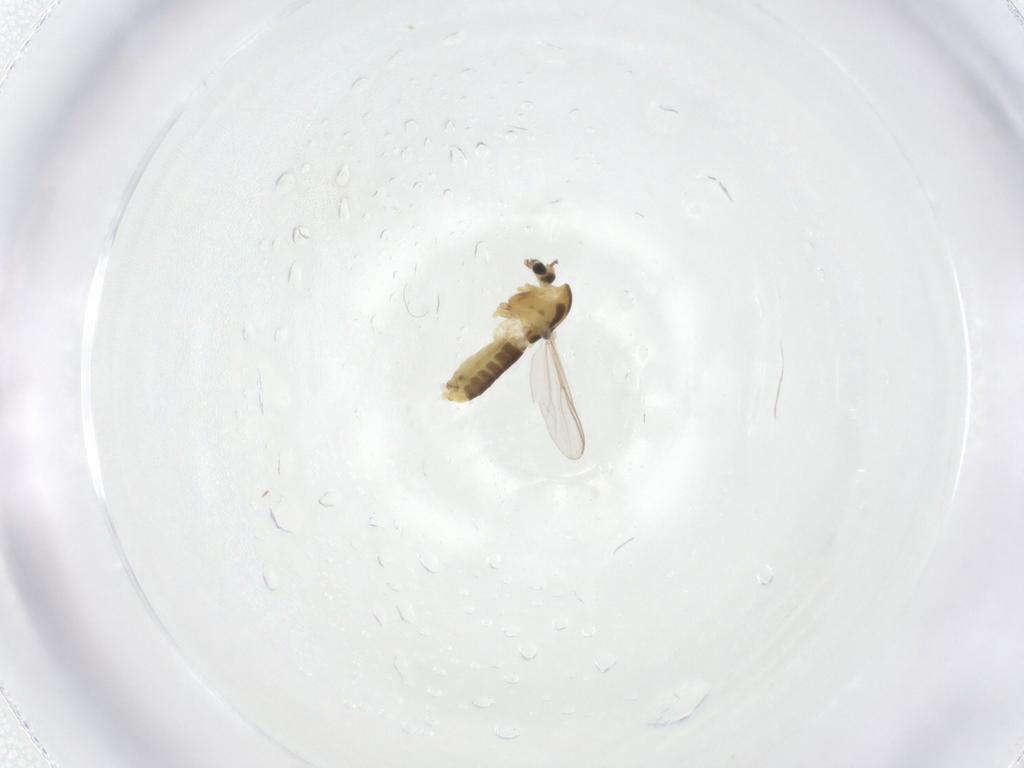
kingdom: Animalia
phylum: Arthropoda
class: Insecta
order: Diptera
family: Chironomidae
